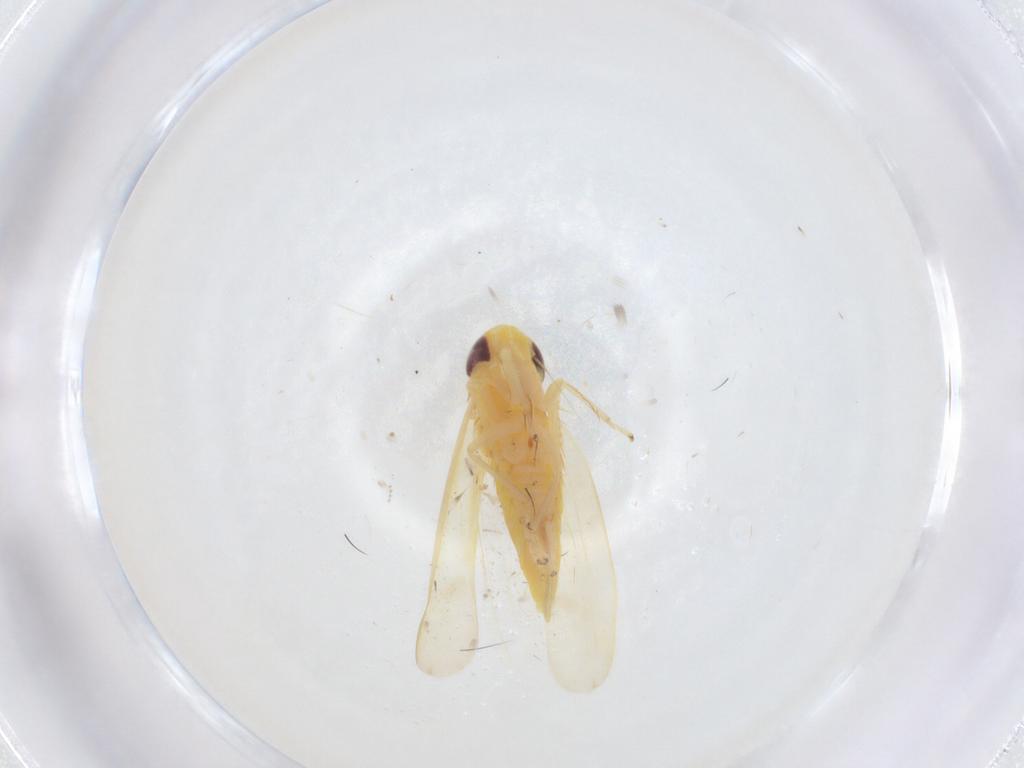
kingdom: Animalia
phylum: Arthropoda
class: Insecta
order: Hemiptera
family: Cicadellidae
